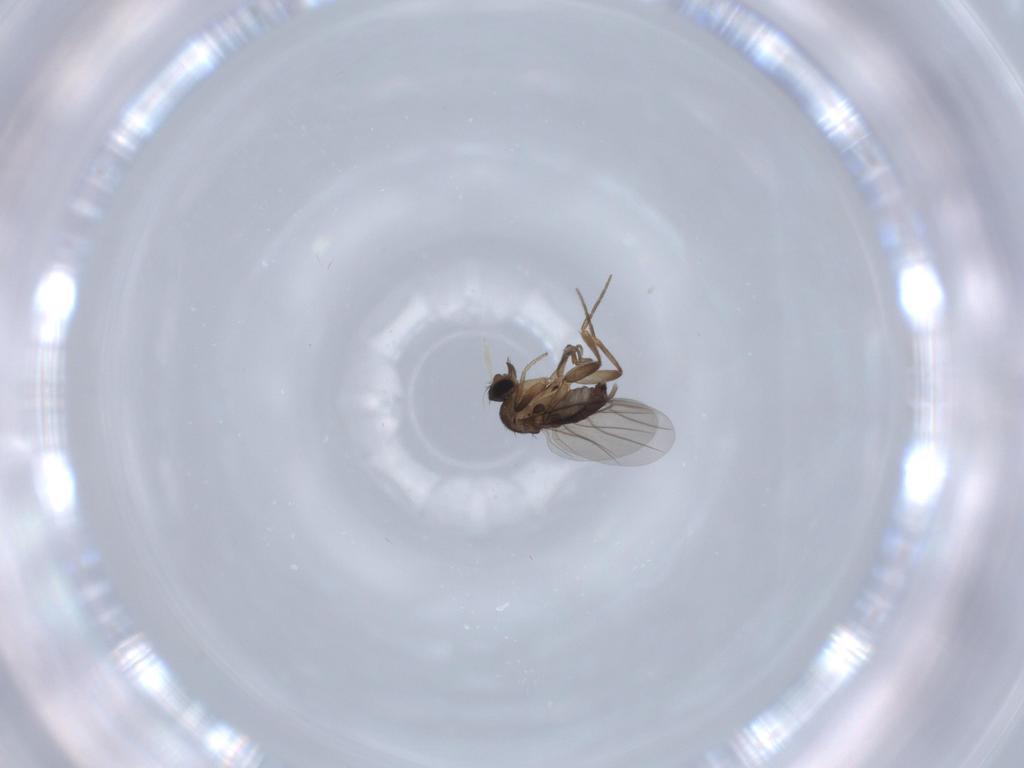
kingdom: Animalia
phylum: Arthropoda
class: Insecta
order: Diptera
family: Phoridae
